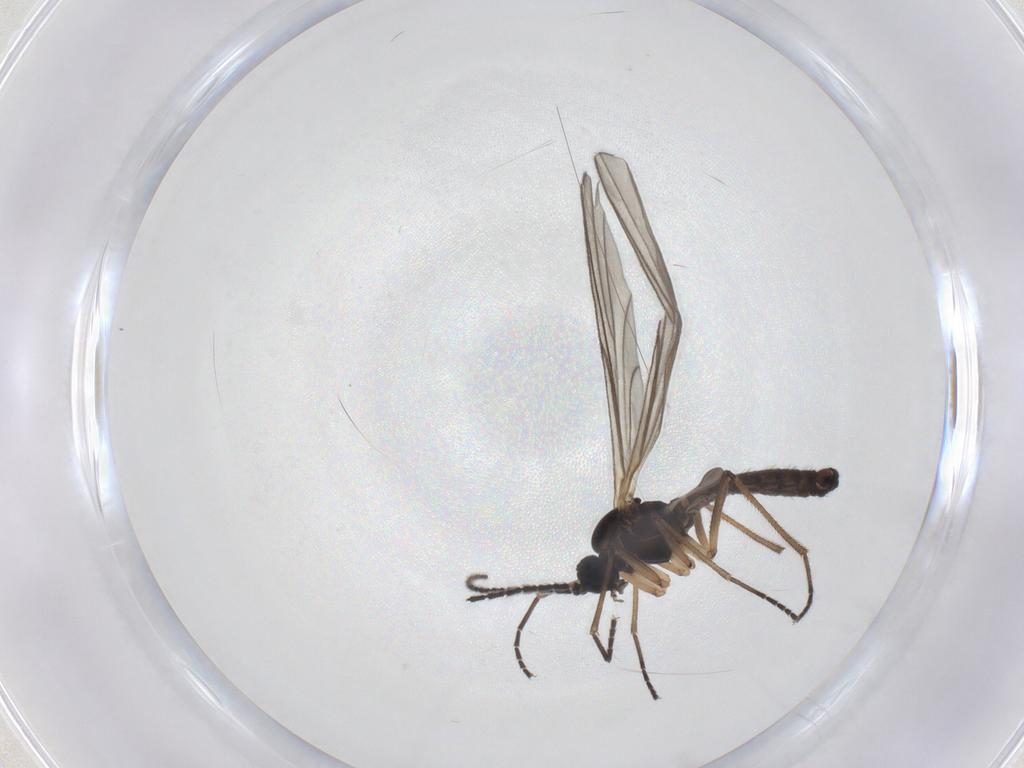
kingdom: Animalia
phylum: Arthropoda
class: Insecta
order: Diptera
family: Sciaridae
